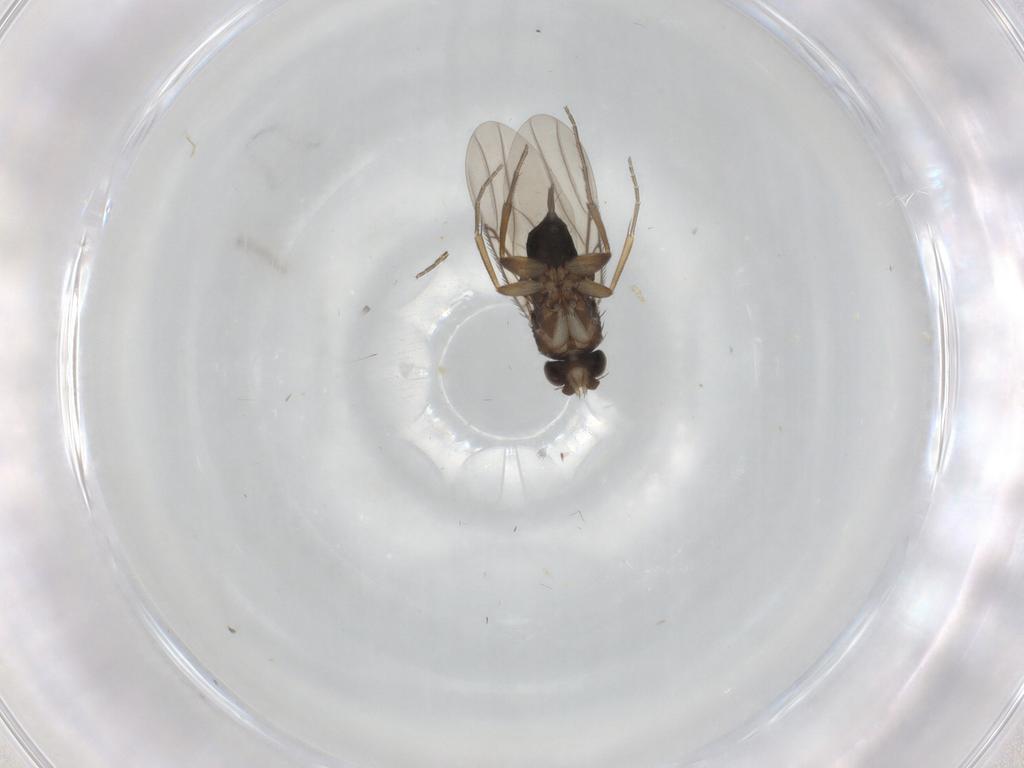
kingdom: Animalia
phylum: Arthropoda
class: Insecta
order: Diptera
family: Phoridae
